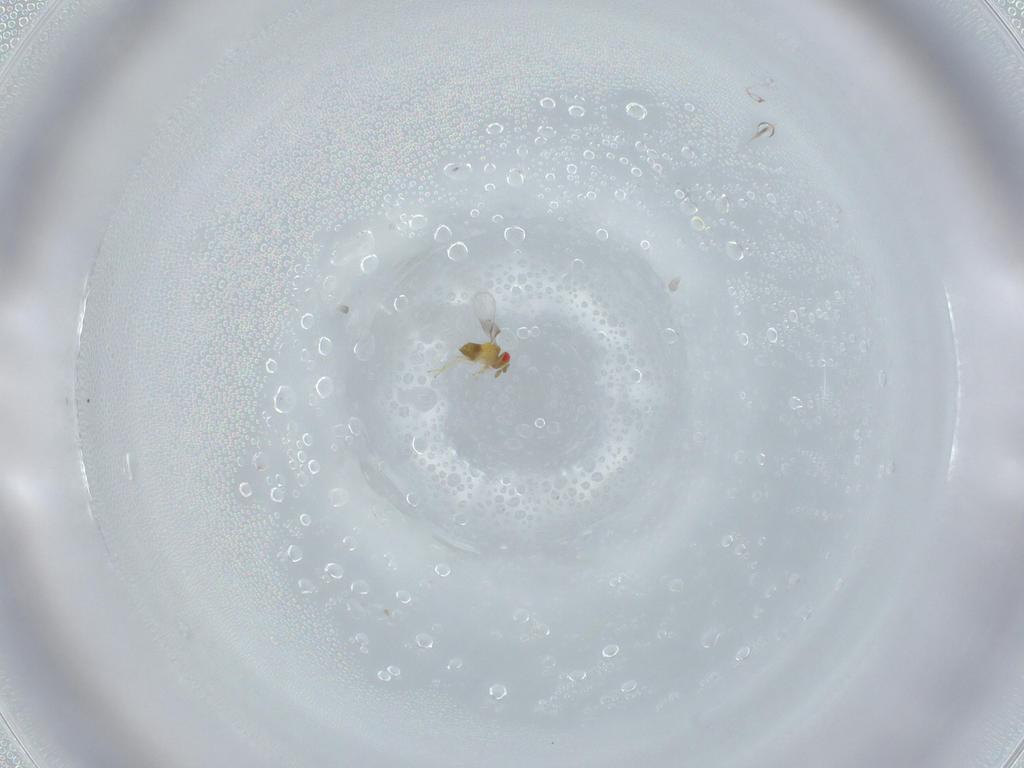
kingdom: Animalia
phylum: Arthropoda
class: Insecta
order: Hymenoptera
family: Trichogrammatidae
